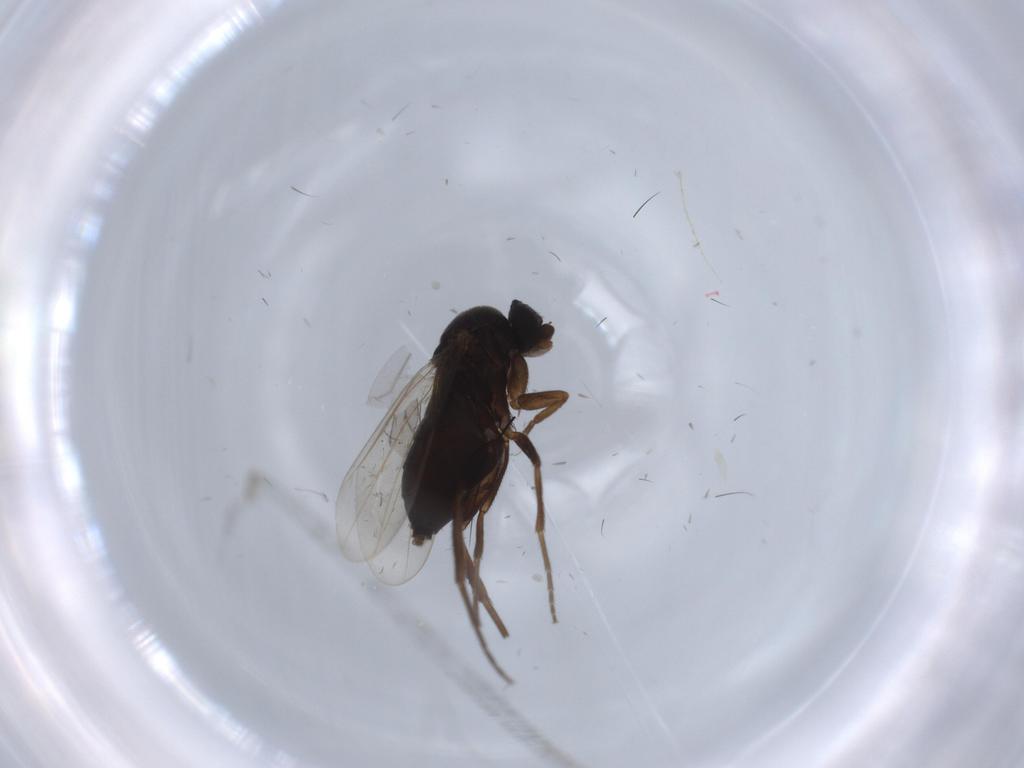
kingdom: Animalia
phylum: Arthropoda
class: Insecta
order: Diptera
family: Phoridae
